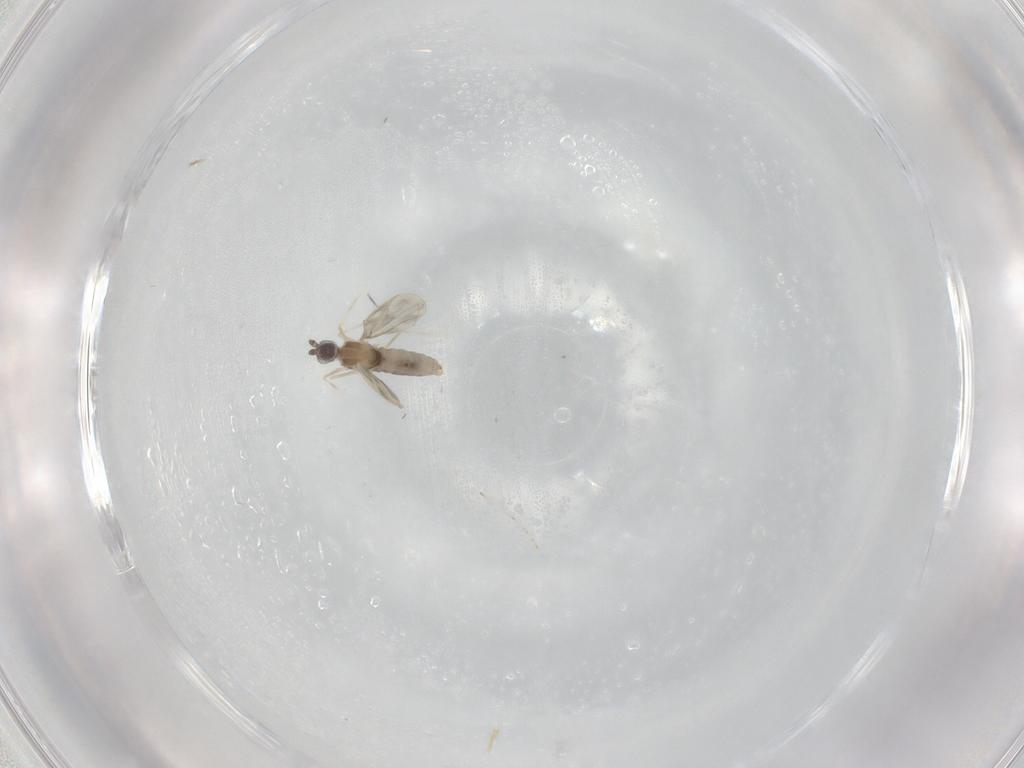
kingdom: Animalia
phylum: Arthropoda
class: Insecta
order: Diptera
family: Cecidomyiidae
